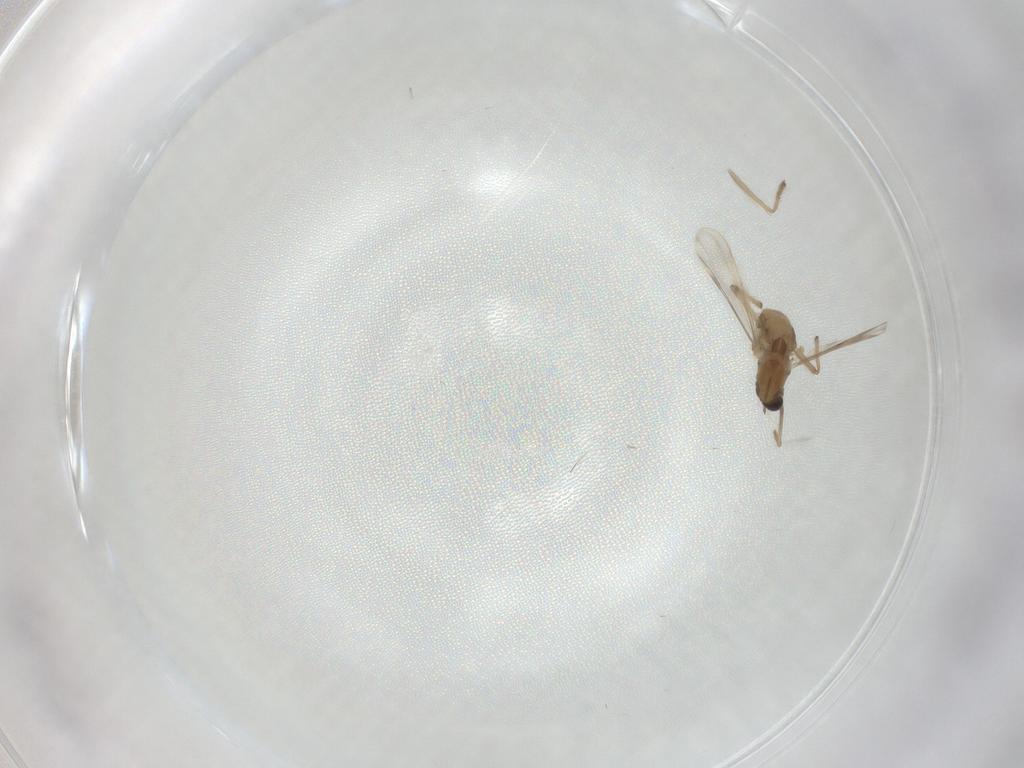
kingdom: Animalia
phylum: Arthropoda
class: Insecta
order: Diptera
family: Chironomidae
